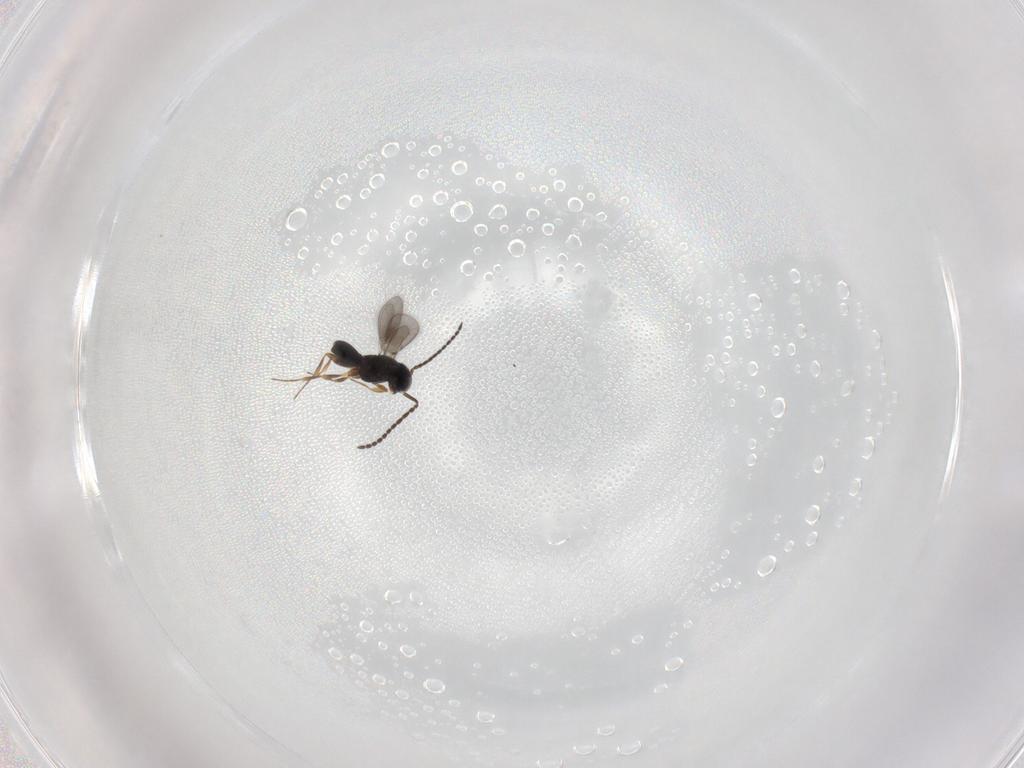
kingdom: Animalia
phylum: Arthropoda
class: Insecta
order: Hymenoptera
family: Scelionidae
